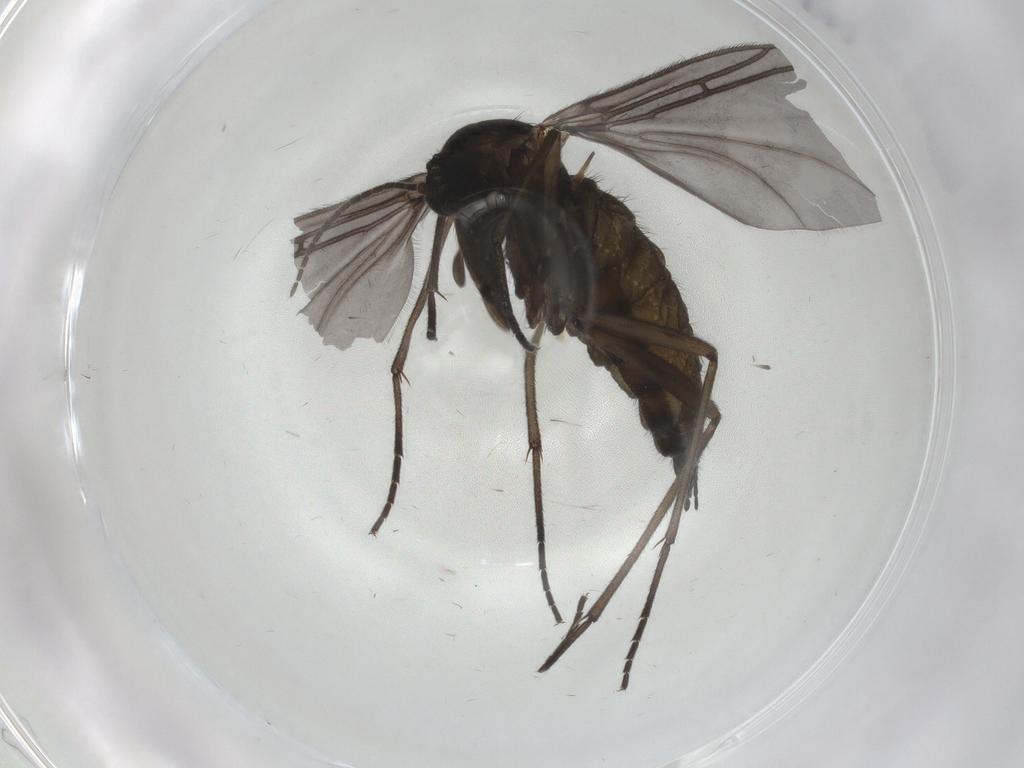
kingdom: Animalia
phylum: Arthropoda
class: Insecta
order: Diptera
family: Sciaridae
